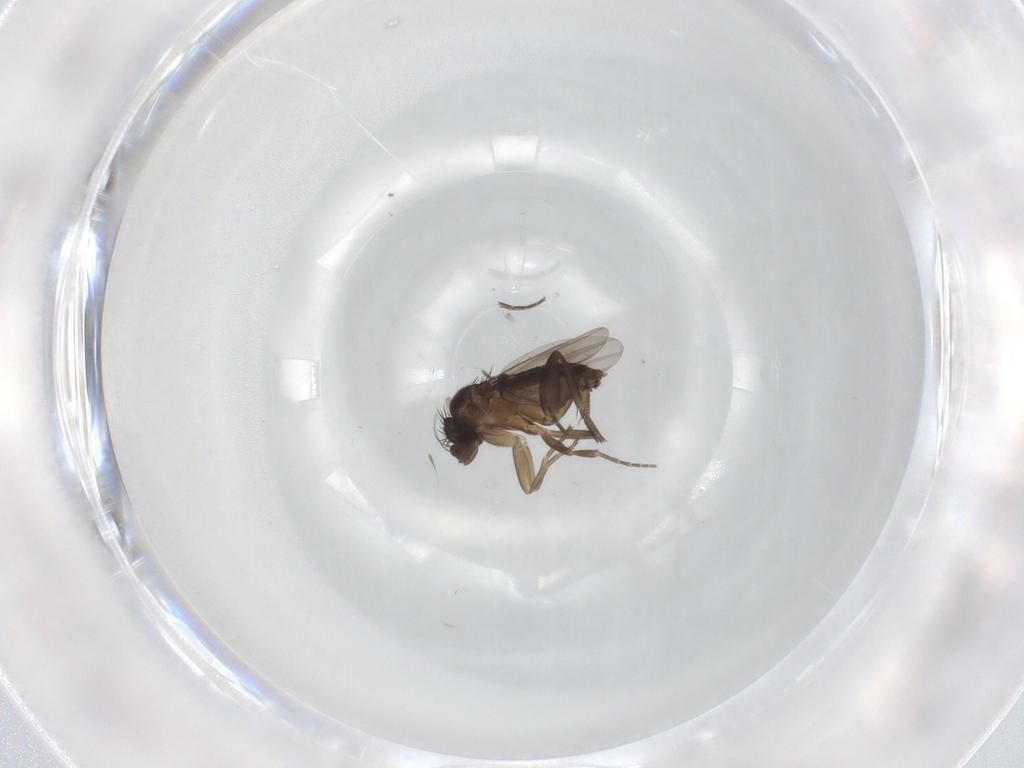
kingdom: Animalia
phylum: Arthropoda
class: Insecta
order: Diptera
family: Phoridae
